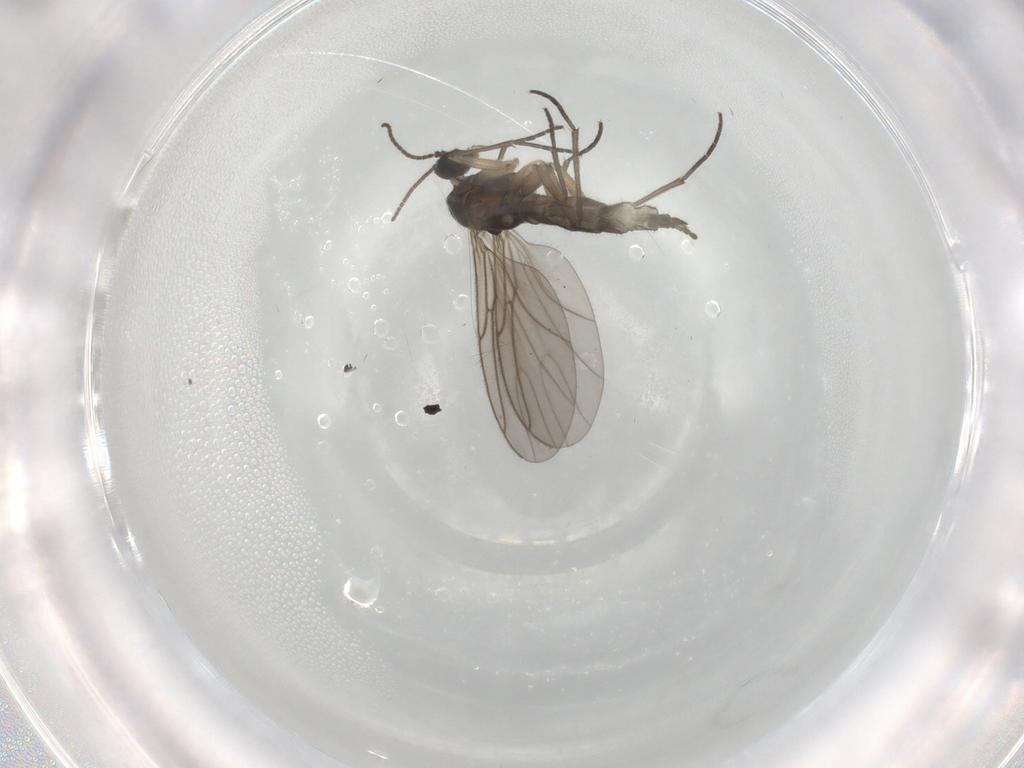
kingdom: Animalia
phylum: Arthropoda
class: Insecta
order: Diptera
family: Sciaridae
